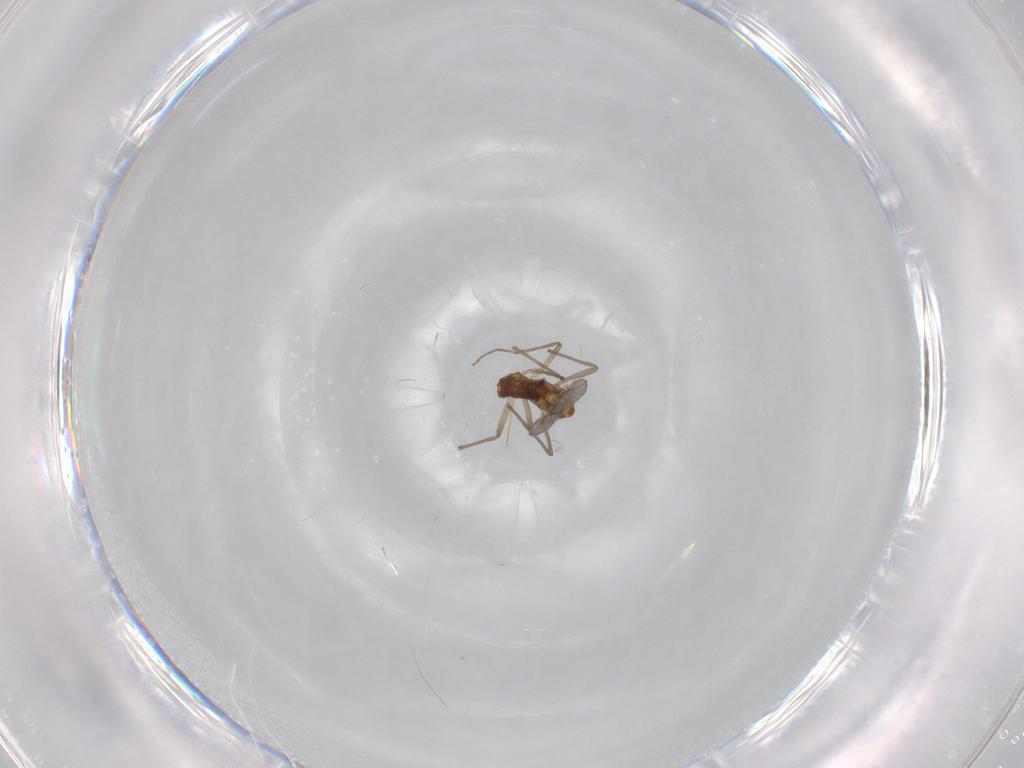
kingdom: Animalia
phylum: Arthropoda
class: Insecta
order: Diptera
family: Chironomidae
